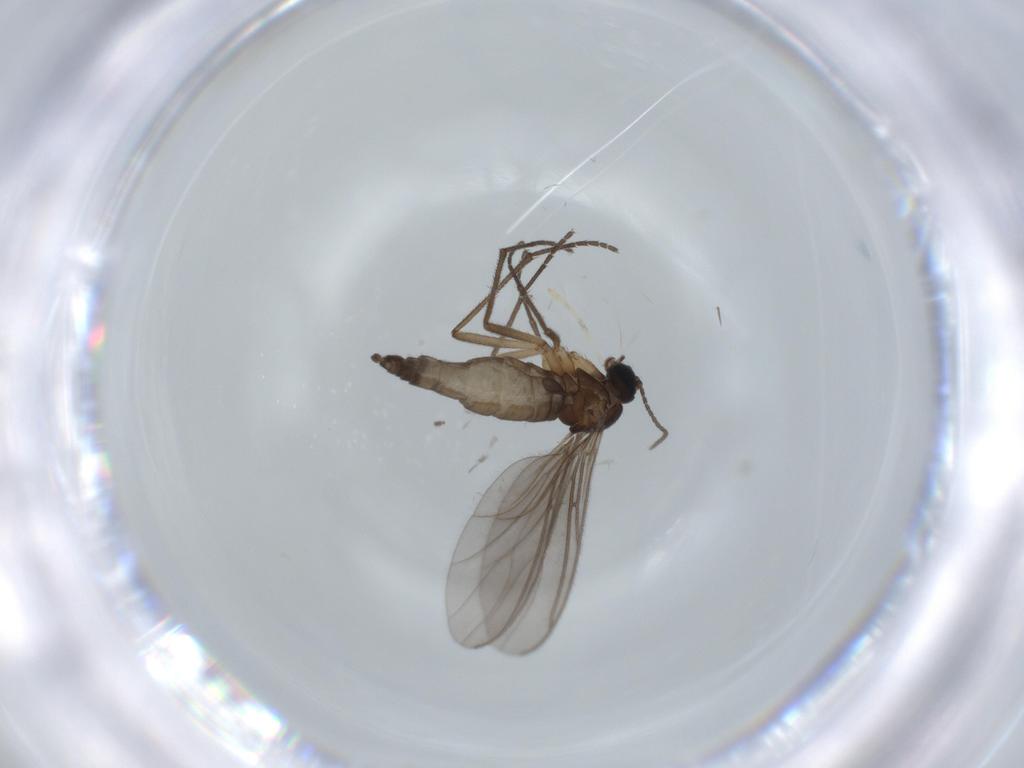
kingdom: Animalia
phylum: Arthropoda
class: Insecta
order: Diptera
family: Sciaridae
